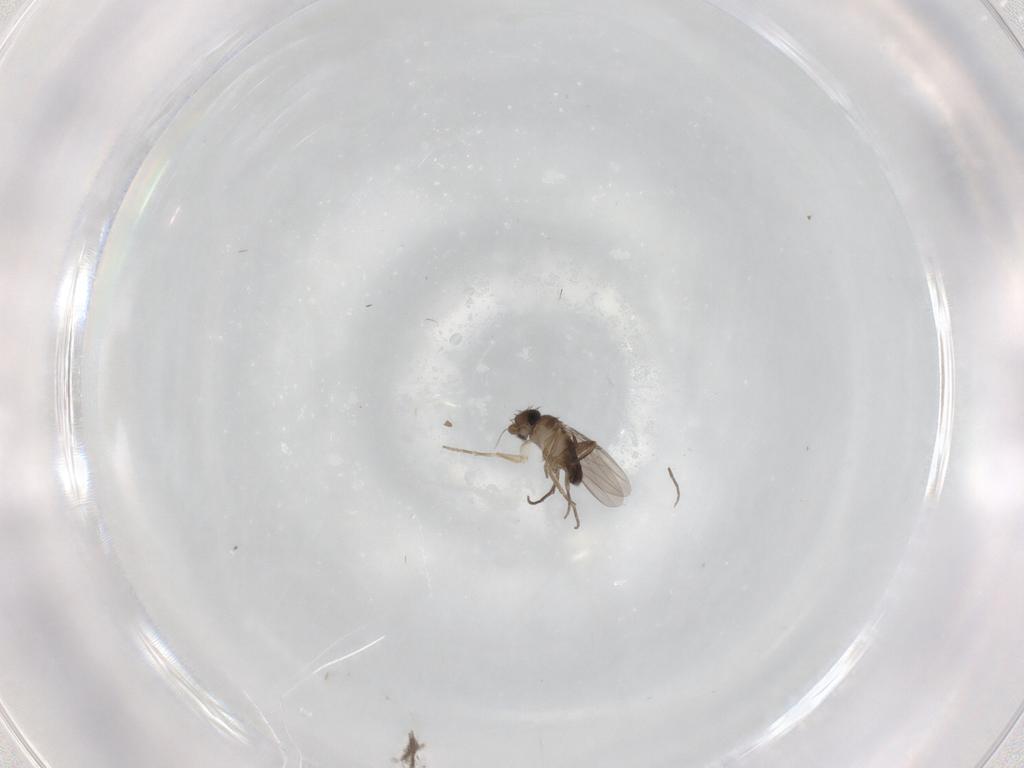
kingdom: Animalia
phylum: Arthropoda
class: Insecta
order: Diptera
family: Phoridae
